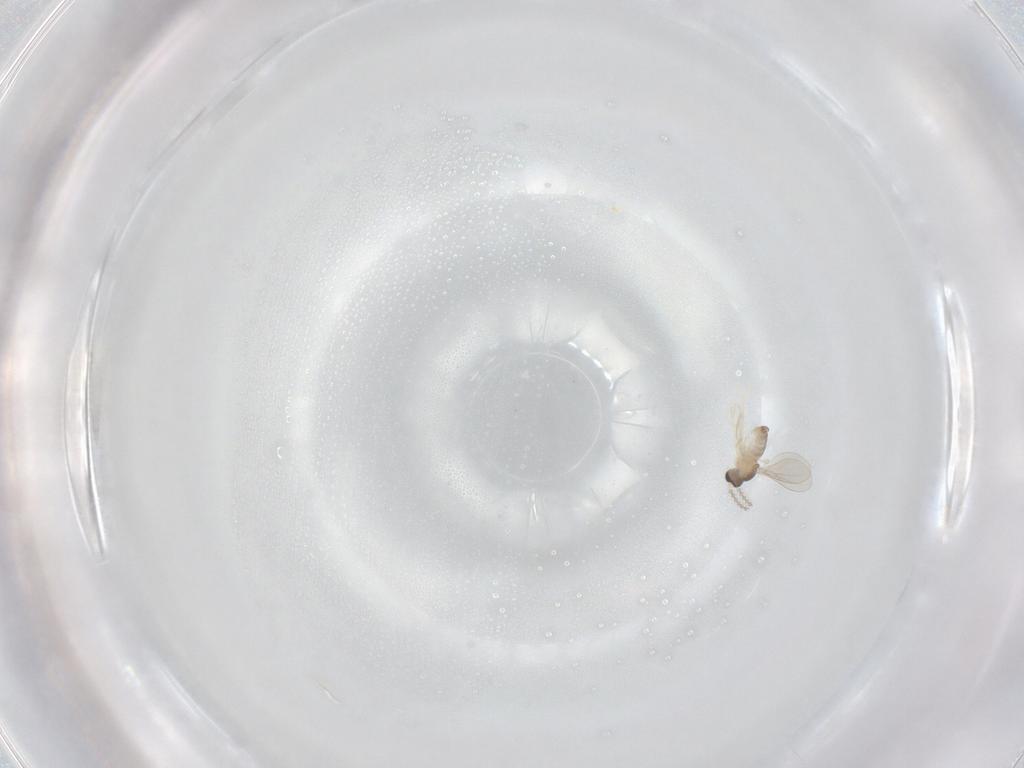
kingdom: Animalia
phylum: Arthropoda
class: Insecta
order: Diptera
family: Cecidomyiidae
